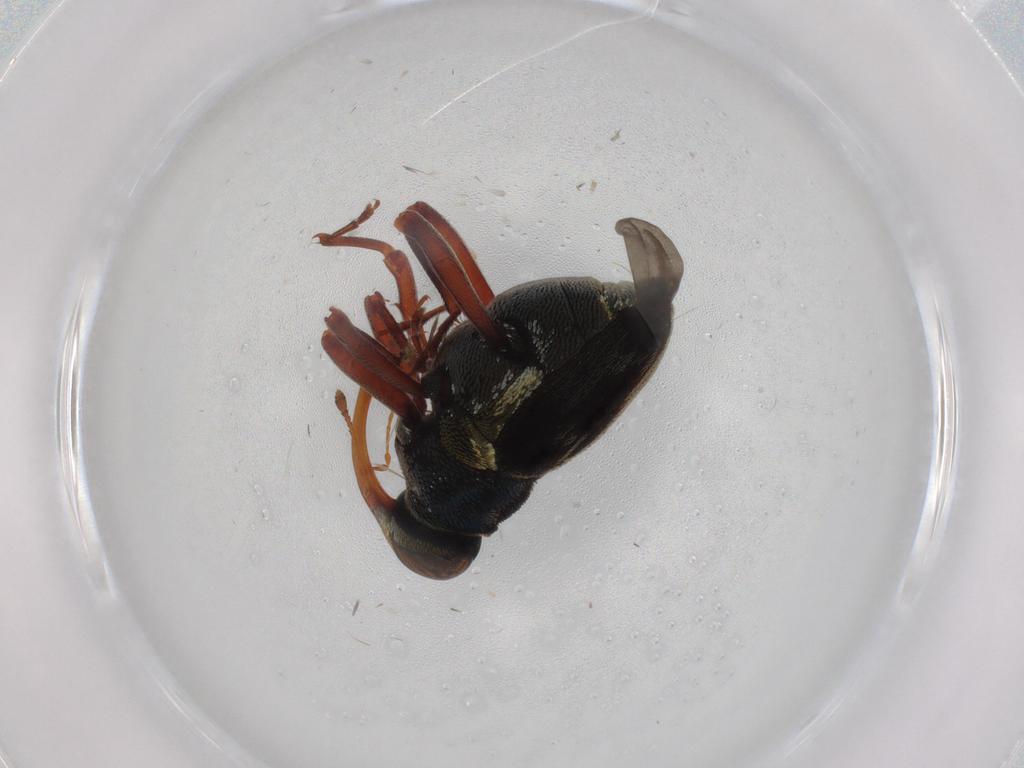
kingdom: Animalia
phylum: Arthropoda
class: Insecta
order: Coleoptera
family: Curculionidae
